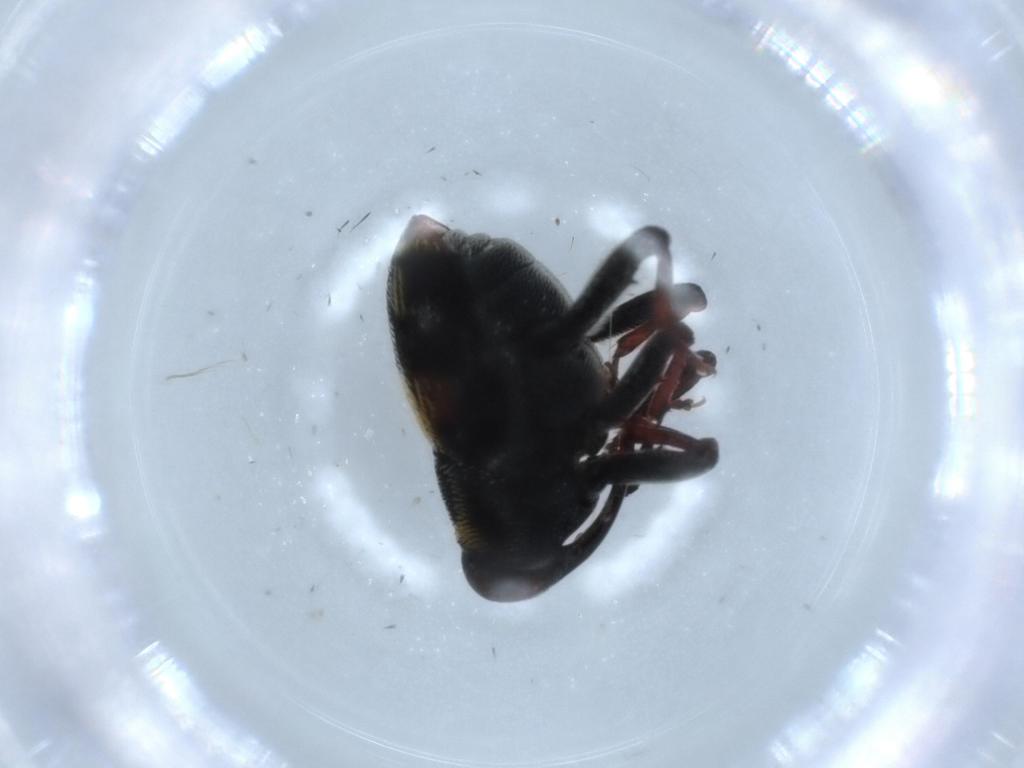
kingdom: Animalia
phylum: Arthropoda
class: Insecta
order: Coleoptera
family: Curculionidae
